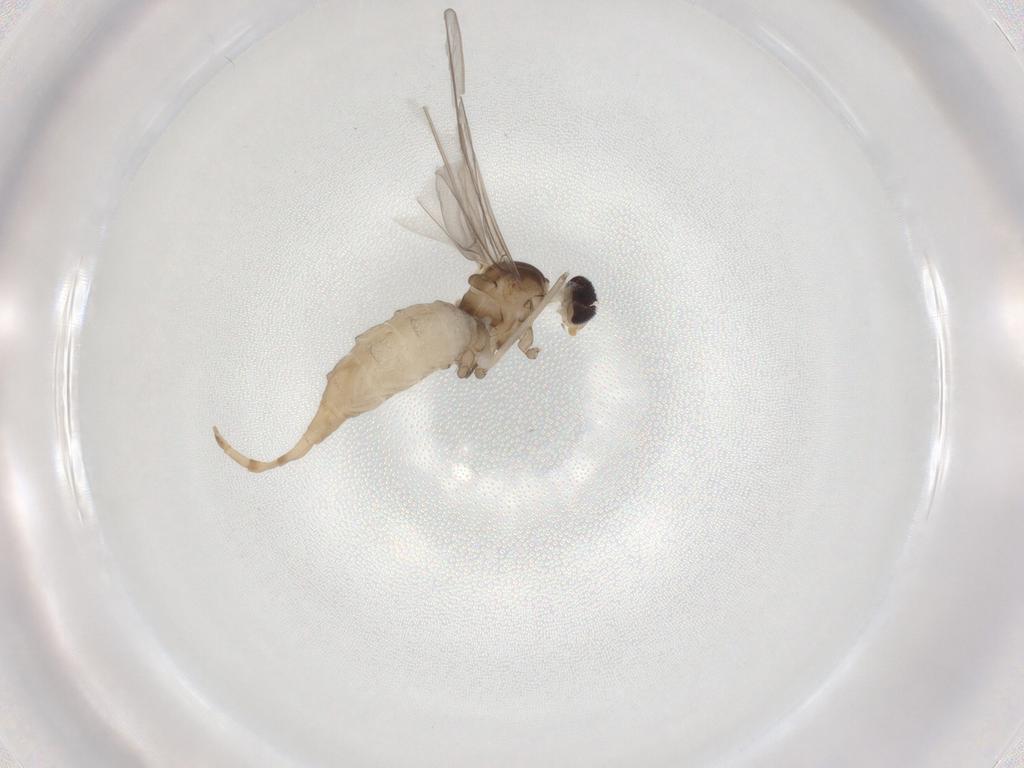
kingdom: Animalia
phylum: Arthropoda
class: Insecta
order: Diptera
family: Cecidomyiidae
